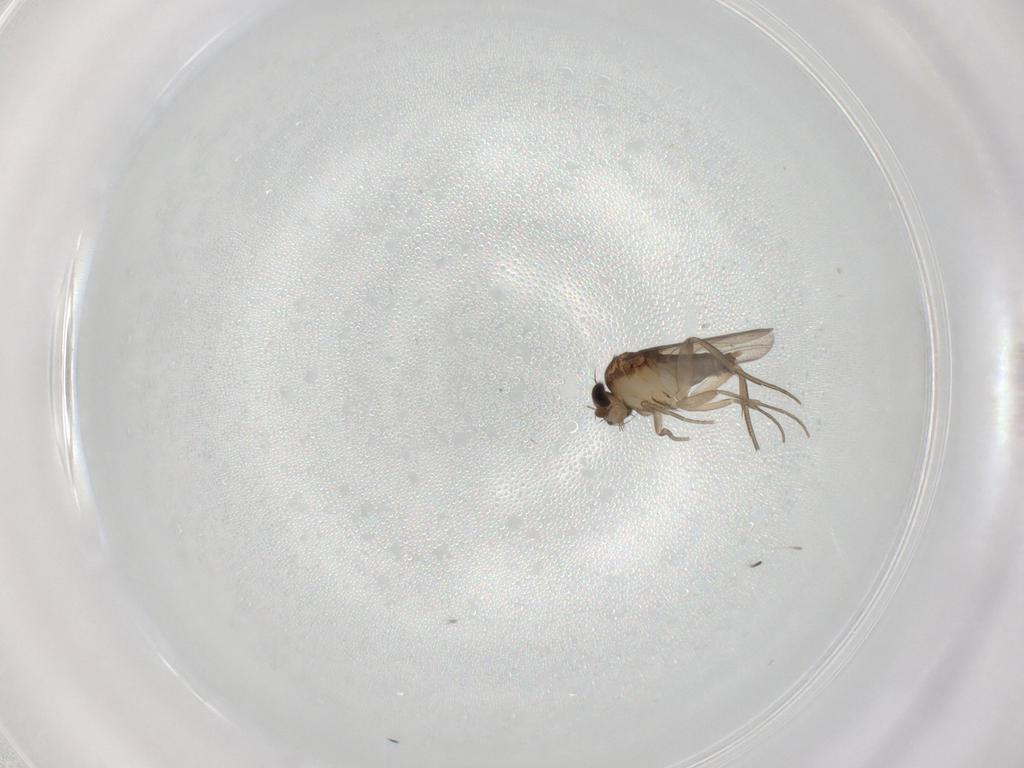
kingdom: Animalia
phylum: Arthropoda
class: Insecta
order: Diptera
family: Phoridae
